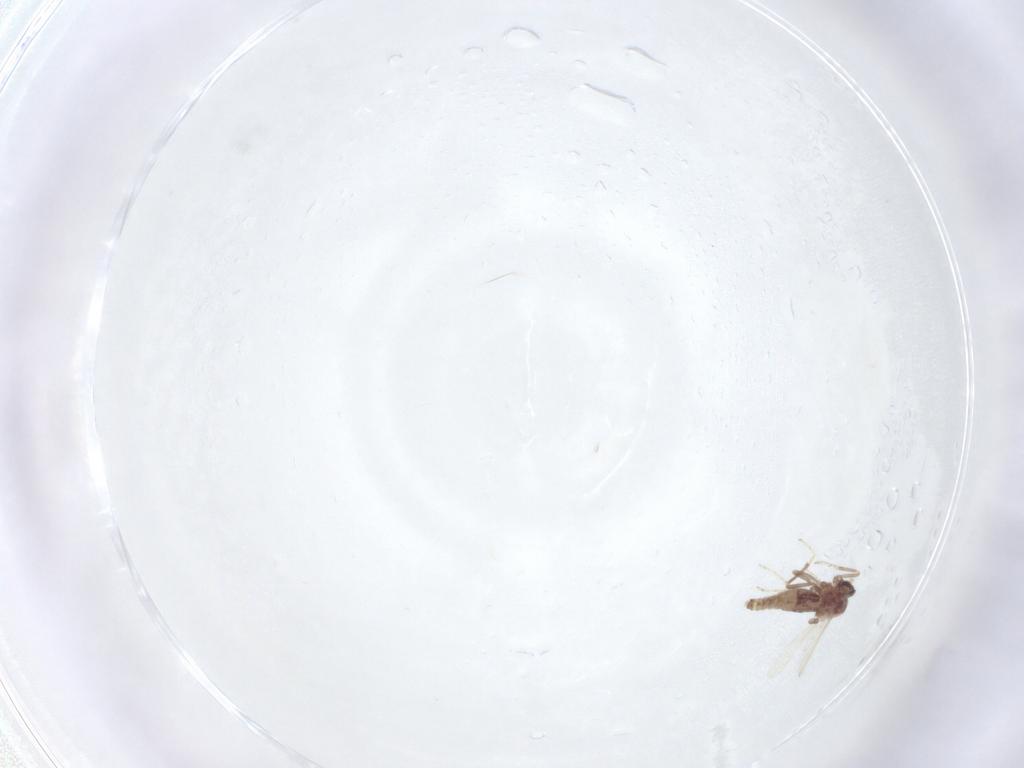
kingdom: Animalia
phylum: Arthropoda
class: Insecta
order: Diptera
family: Ceratopogonidae
